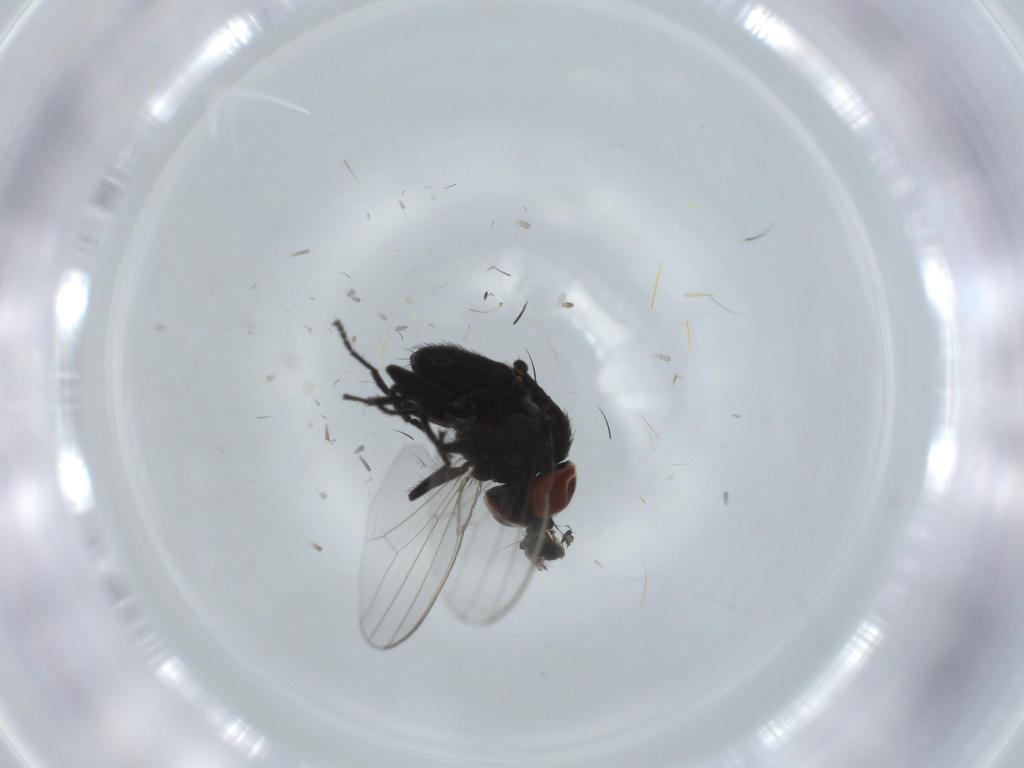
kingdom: Animalia
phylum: Arthropoda
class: Insecta
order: Diptera
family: Milichiidae
